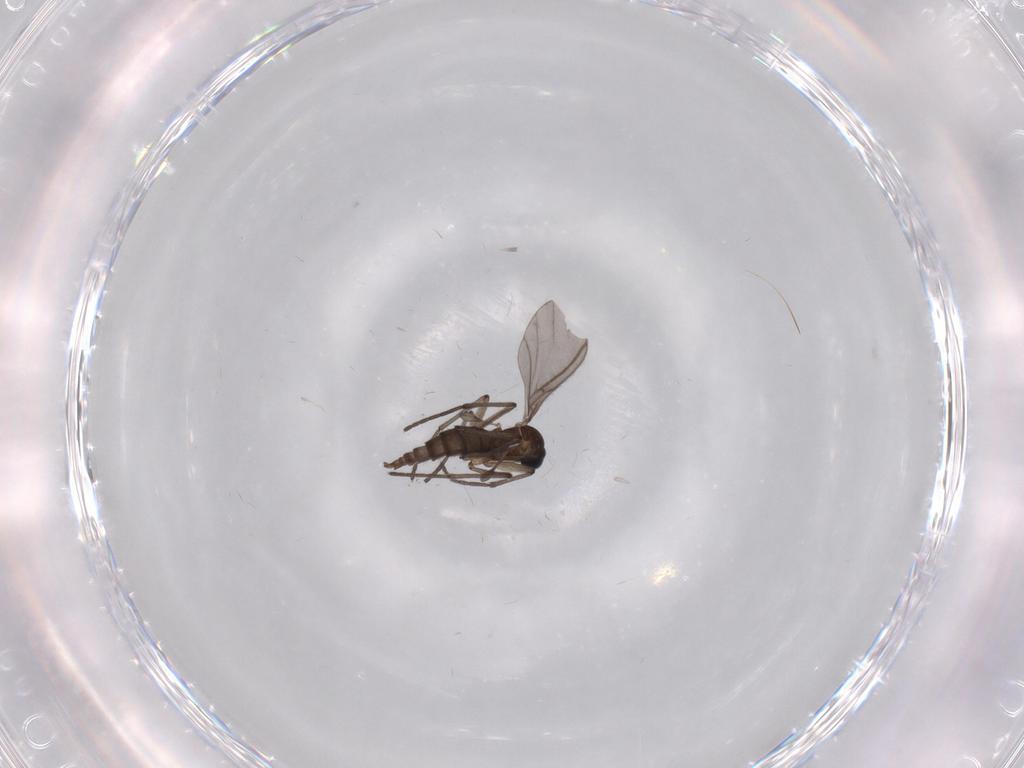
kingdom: Animalia
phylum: Arthropoda
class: Insecta
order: Diptera
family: Sciaridae
